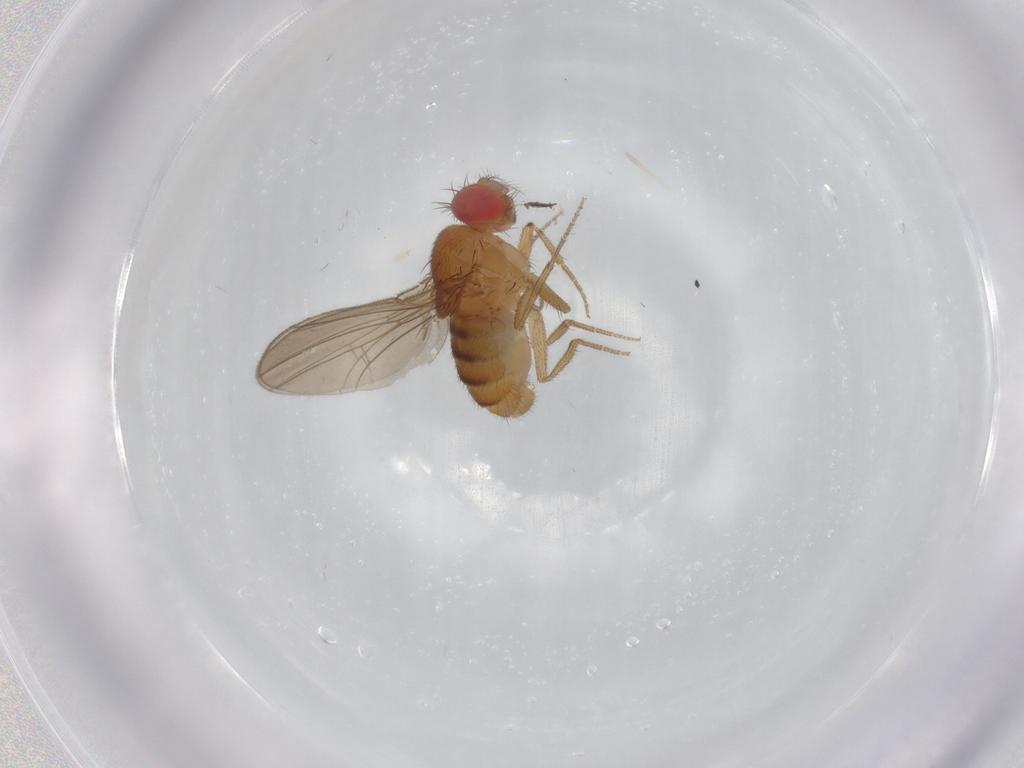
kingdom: Animalia
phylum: Arthropoda
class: Insecta
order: Diptera
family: Drosophilidae
